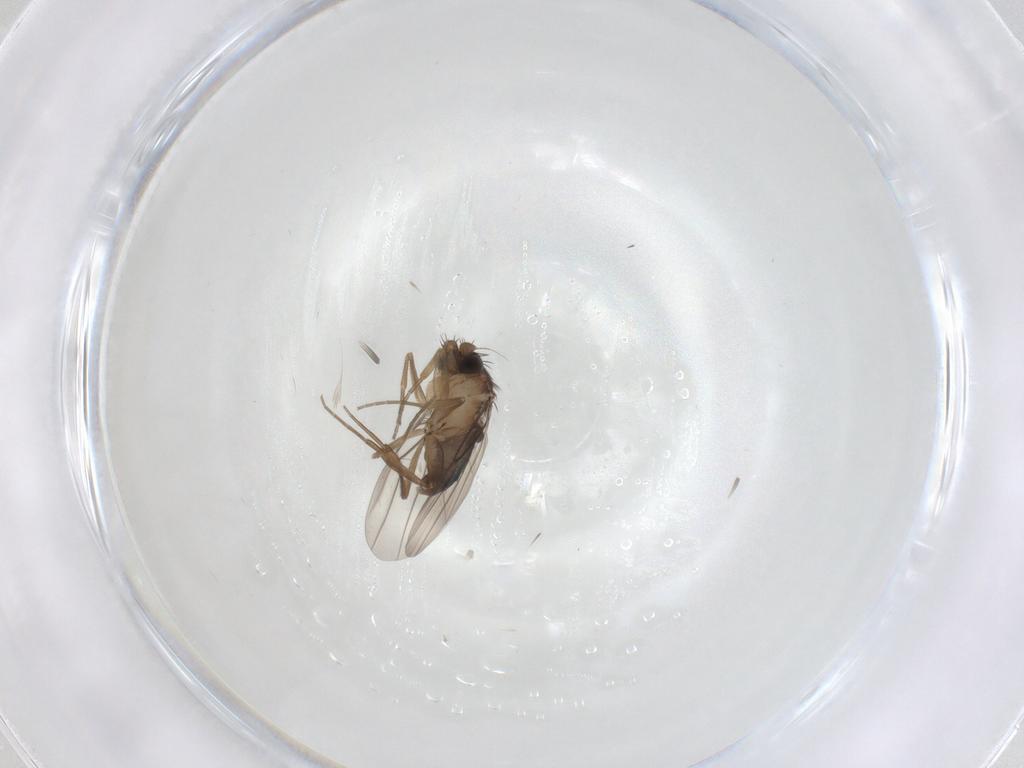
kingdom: Animalia
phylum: Arthropoda
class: Insecta
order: Diptera
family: Phoridae
